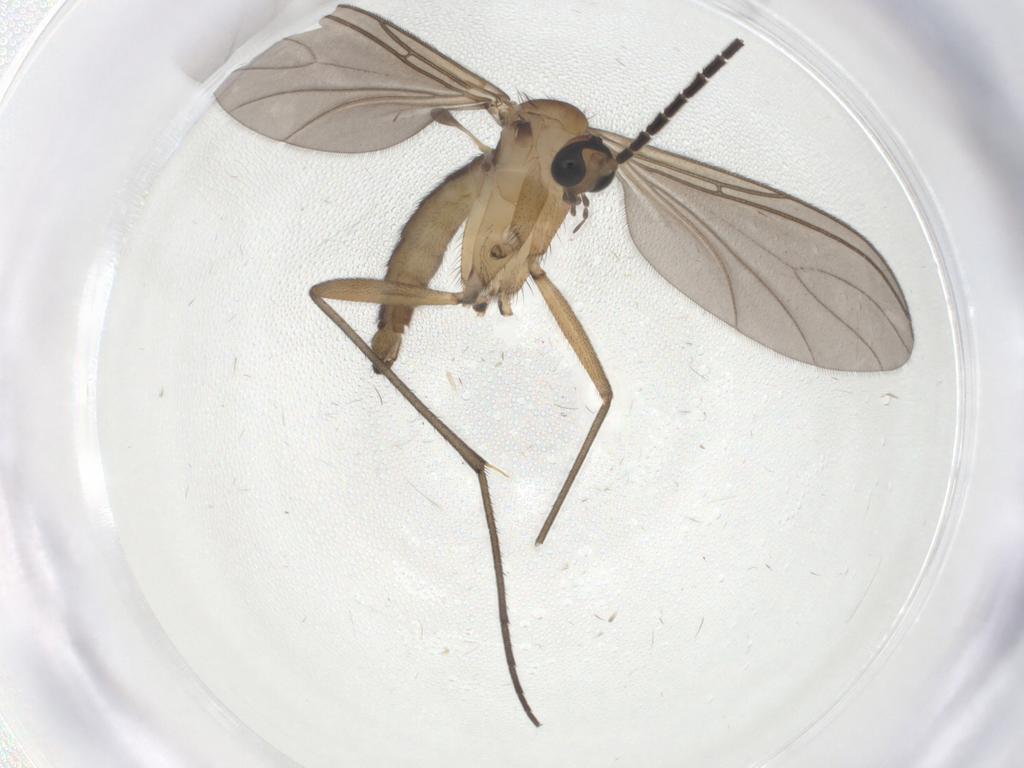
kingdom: Animalia
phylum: Arthropoda
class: Insecta
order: Diptera
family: Sciaridae
